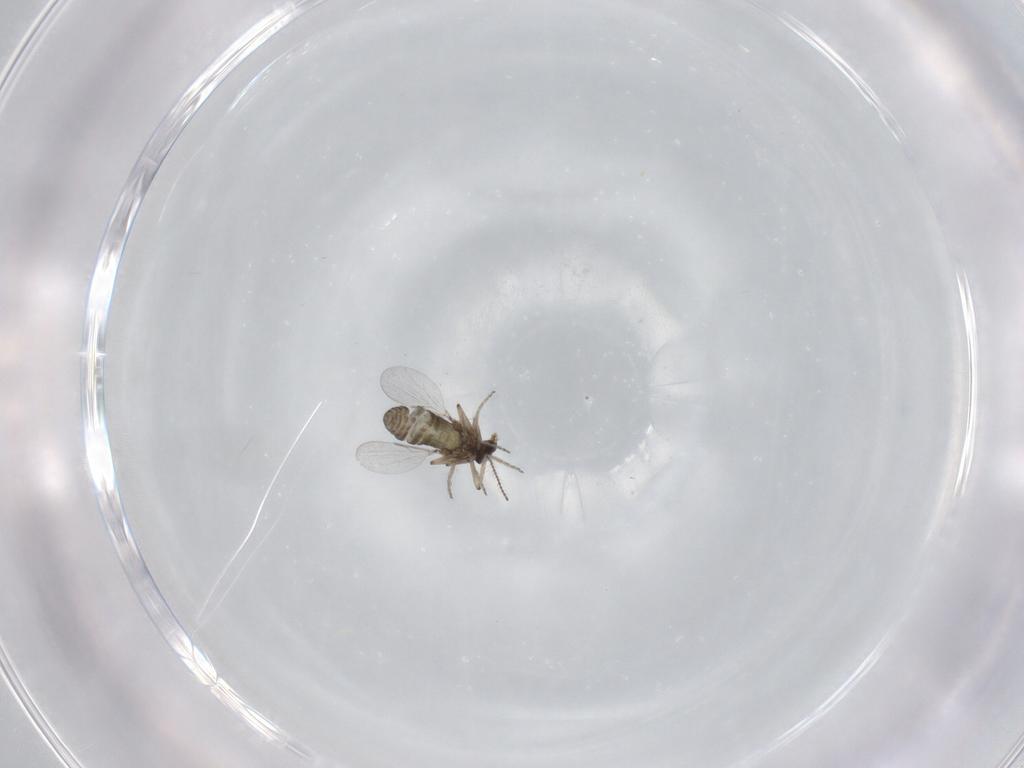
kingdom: Animalia
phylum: Arthropoda
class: Insecta
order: Diptera
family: Ceratopogonidae
